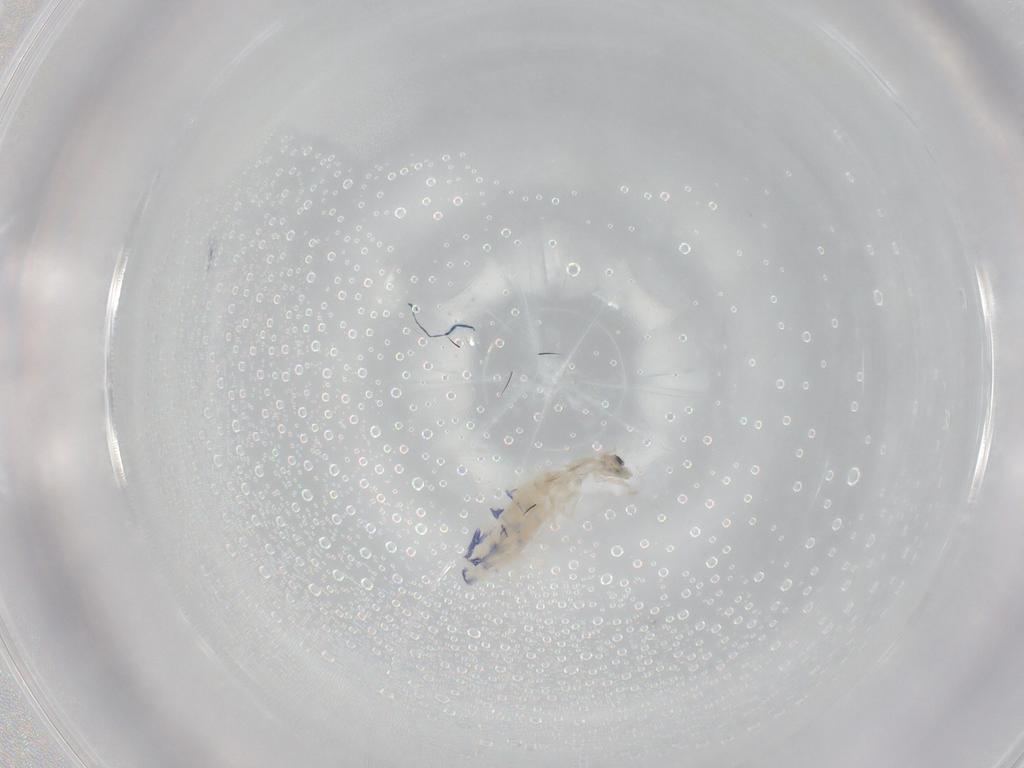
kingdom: Animalia
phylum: Arthropoda
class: Collembola
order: Entomobryomorpha
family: Entomobryidae
